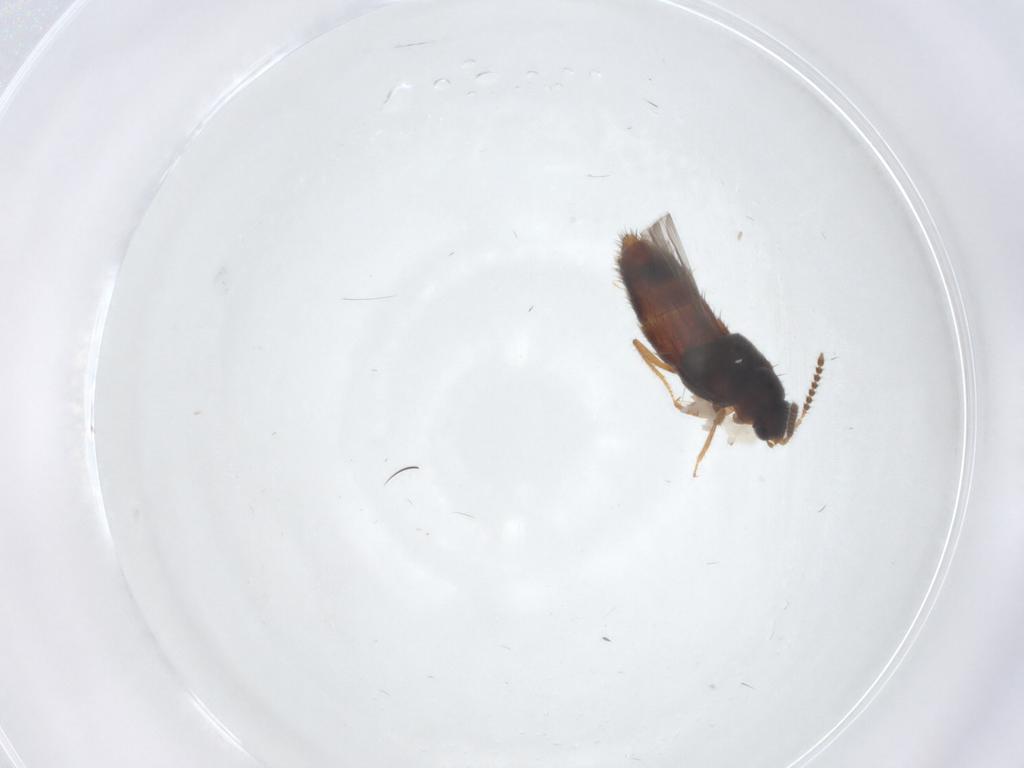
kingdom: Animalia
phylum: Arthropoda
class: Insecta
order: Coleoptera
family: Staphylinidae
